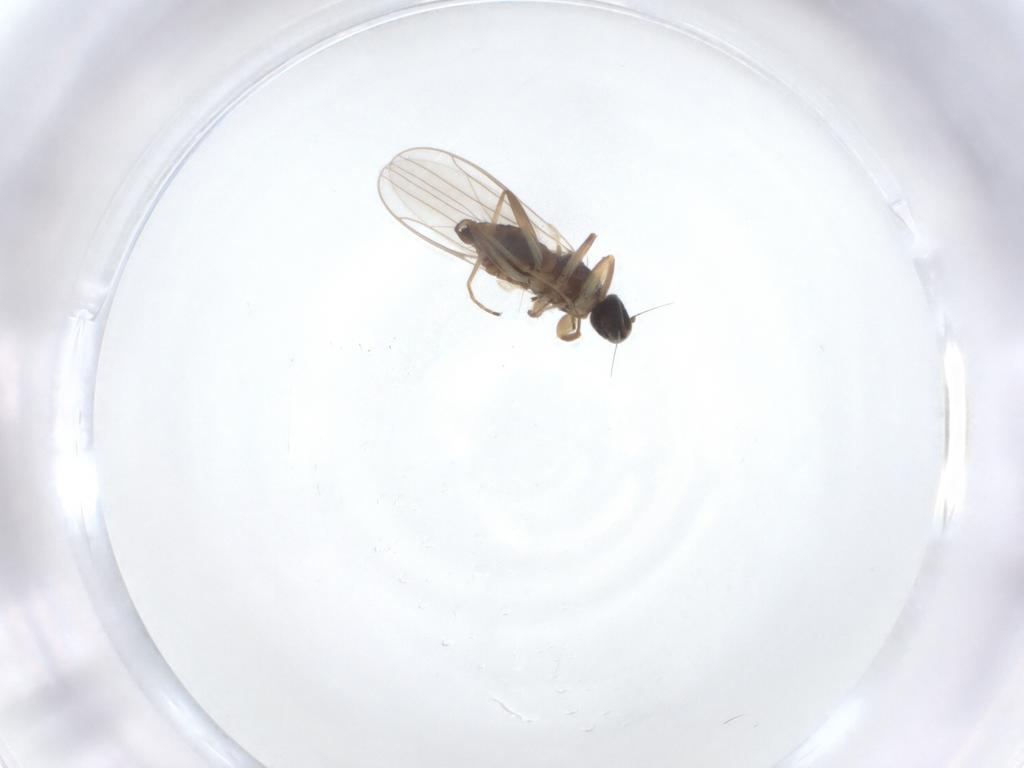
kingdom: Animalia
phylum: Arthropoda
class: Insecta
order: Diptera
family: Hybotidae
